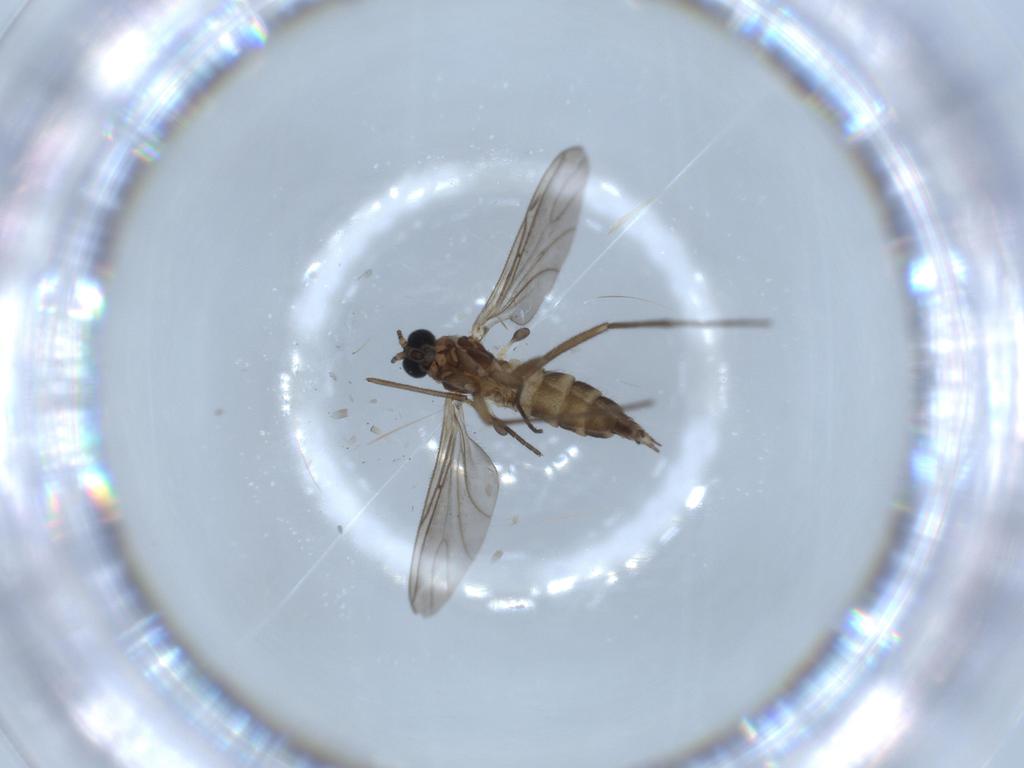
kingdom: Animalia
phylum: Arthropoda
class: Insecta
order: Diptera
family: Sciaridae
